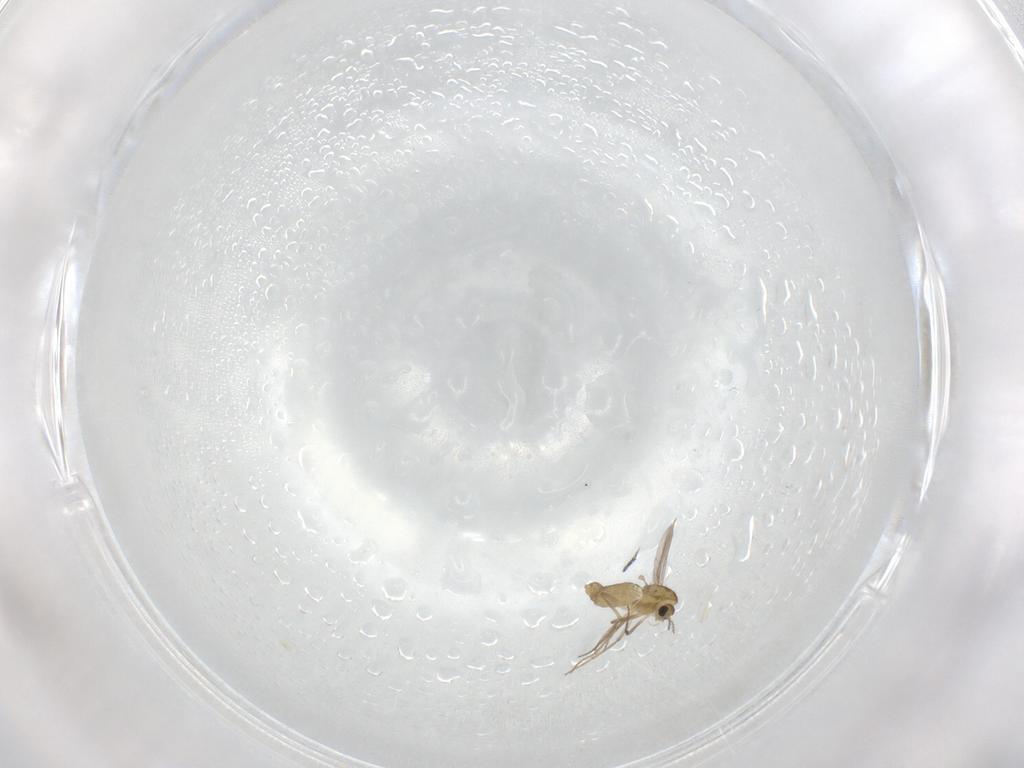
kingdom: Animalia
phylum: Arthropoda
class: Insecta
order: Diptera
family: Chironomidae
